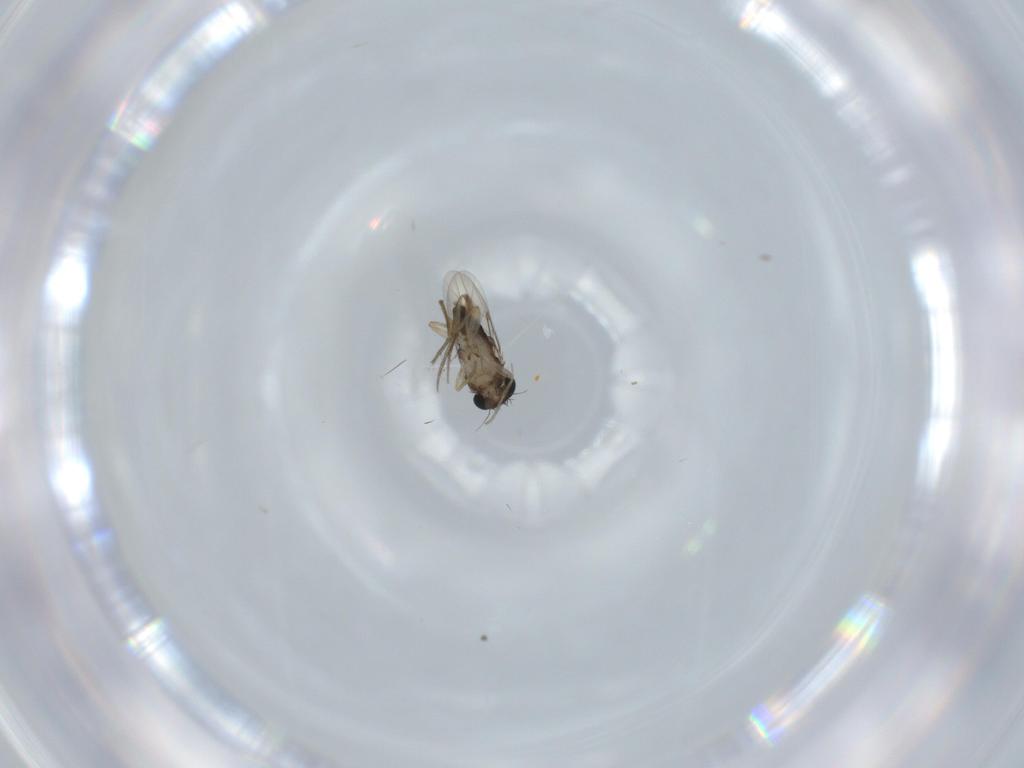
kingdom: Animalia
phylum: Arthropoda
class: Insecta
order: Diptera
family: Phoridae
